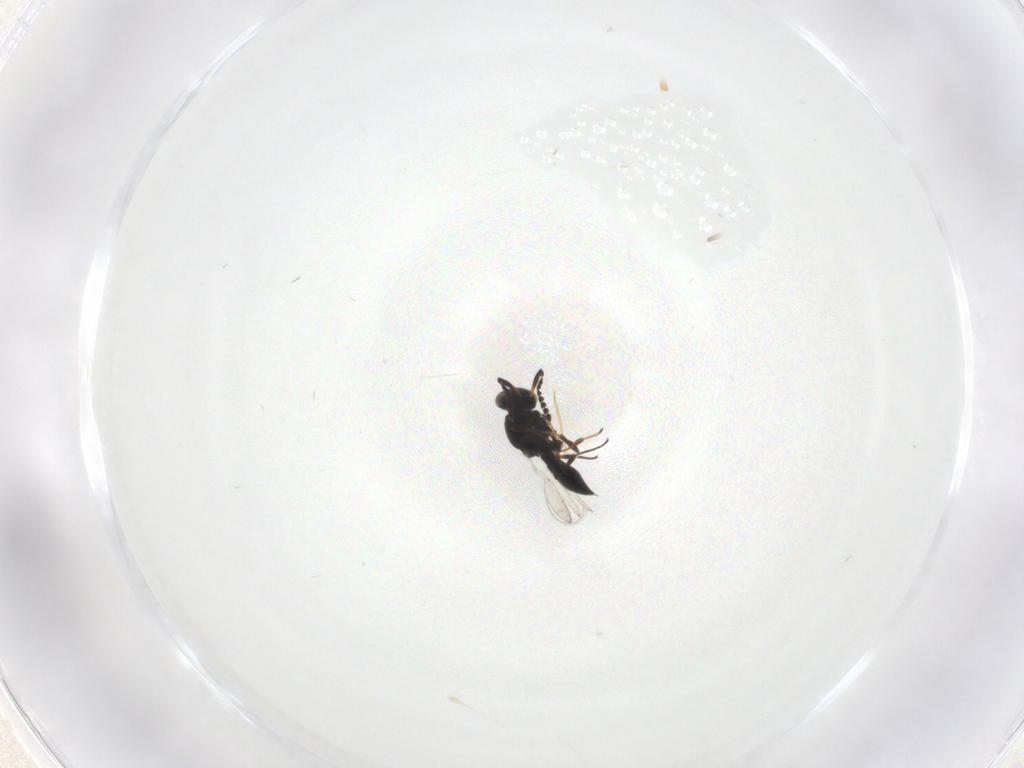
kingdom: Animalia
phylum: Arthropoda
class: Insecta
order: Hymenoptera
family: Platygastridae
